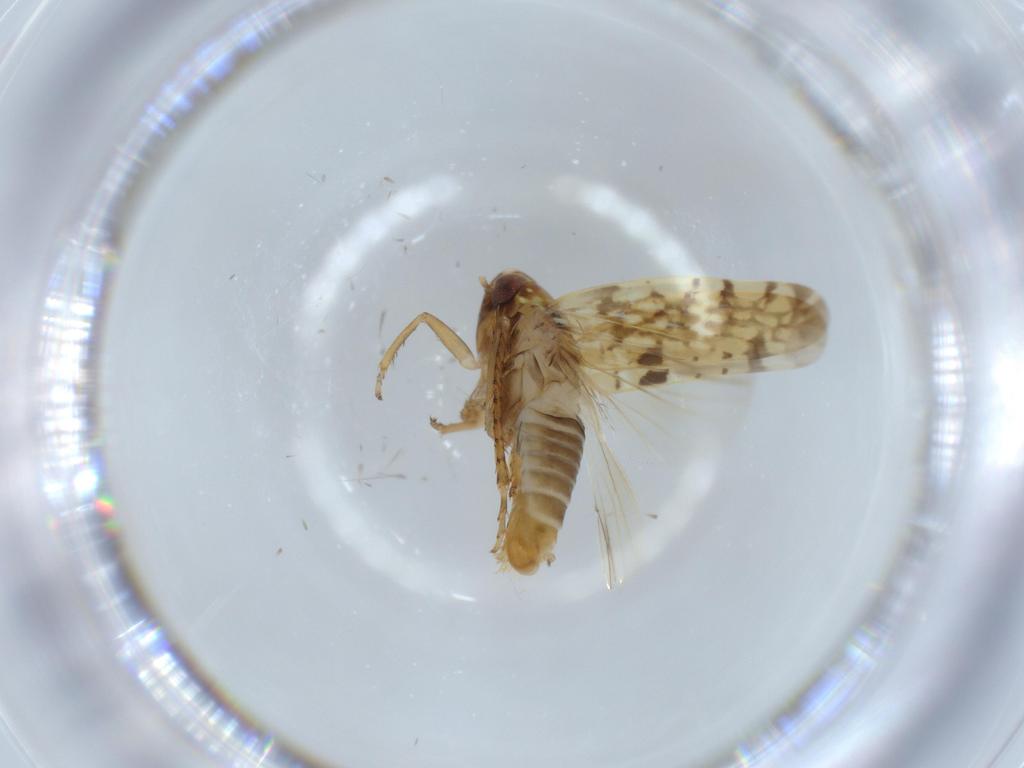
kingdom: Animalia
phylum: Arthropoda
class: Insecta
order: Hemiptera
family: Cicadellidae
